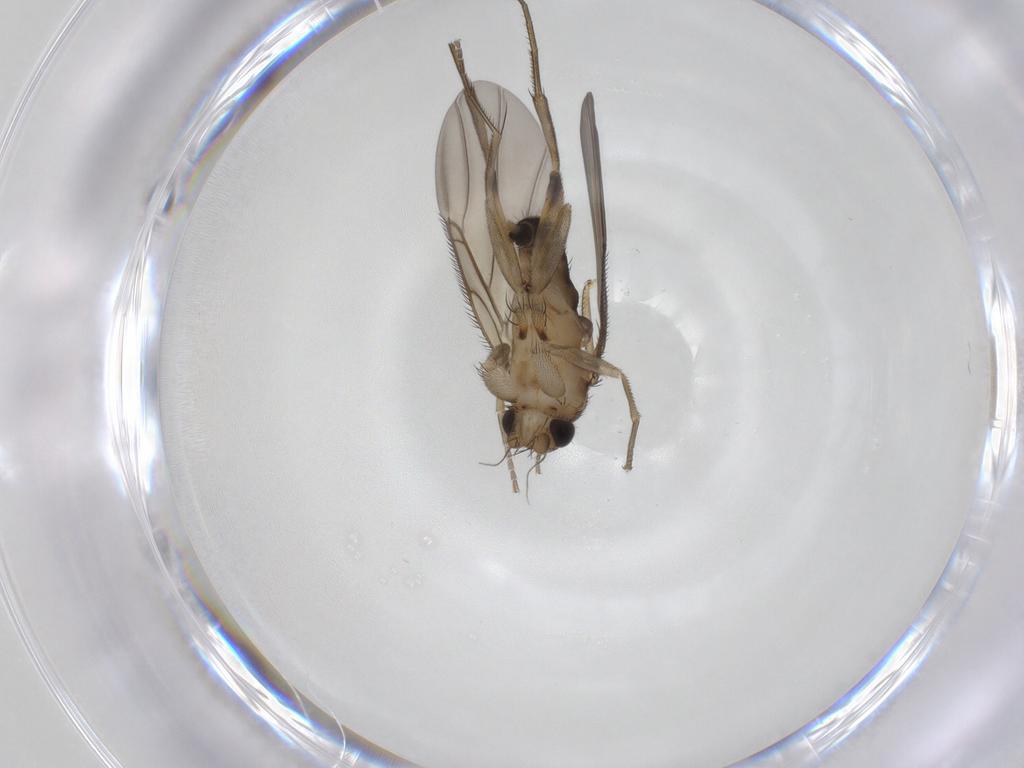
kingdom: Animalia
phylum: Arthropoda
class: Insecta
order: Diptera
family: Phoridae
